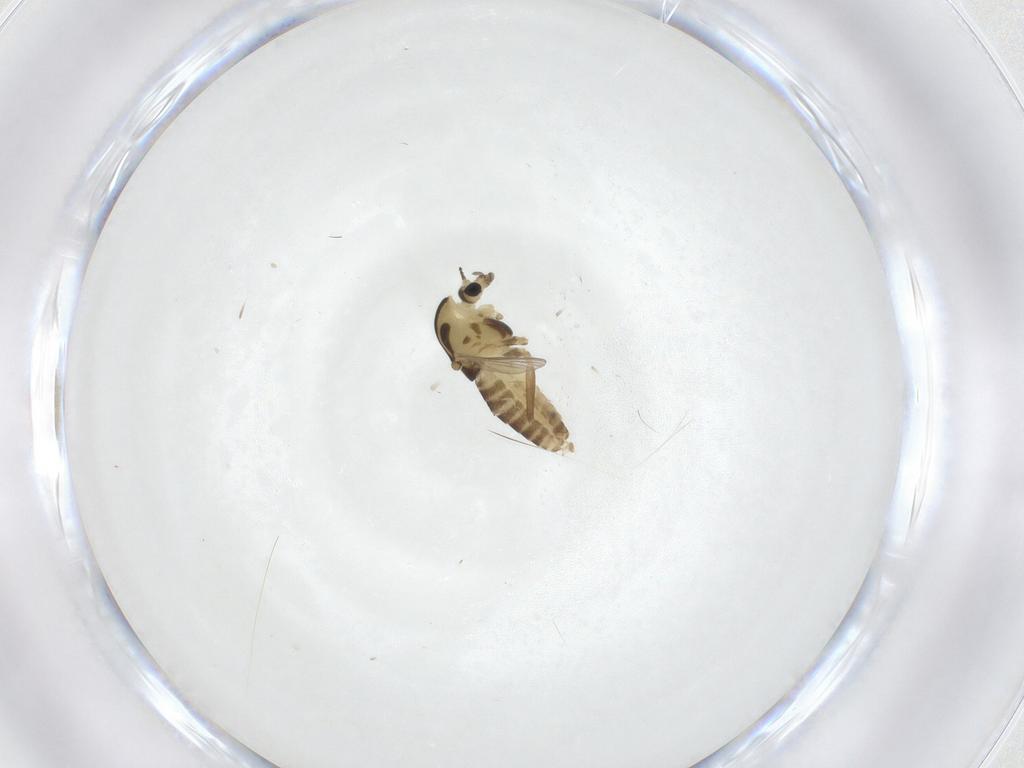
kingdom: Animalia
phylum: Arthropoda
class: Insecta
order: Diptera
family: Chironomidae
